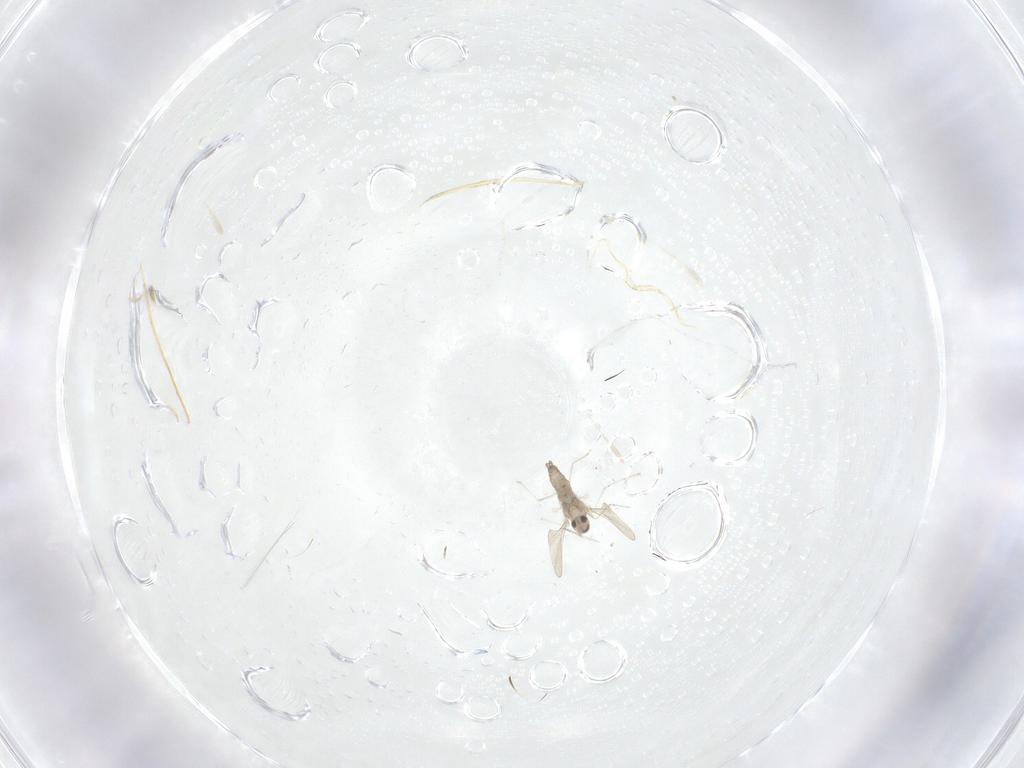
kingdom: Animalia
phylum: Arthropoda
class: Insecta
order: Diptera
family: Cecidomyiidae
